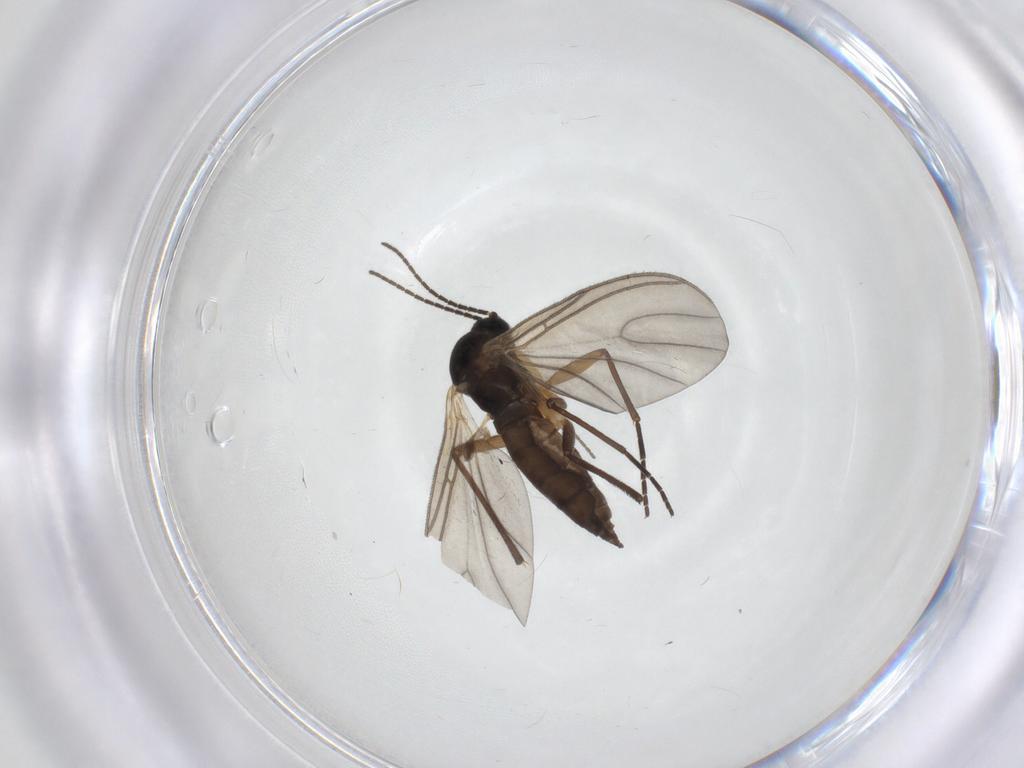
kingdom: Animalia
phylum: Arthropoda
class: Insecta
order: Diptera
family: Sciaridae
